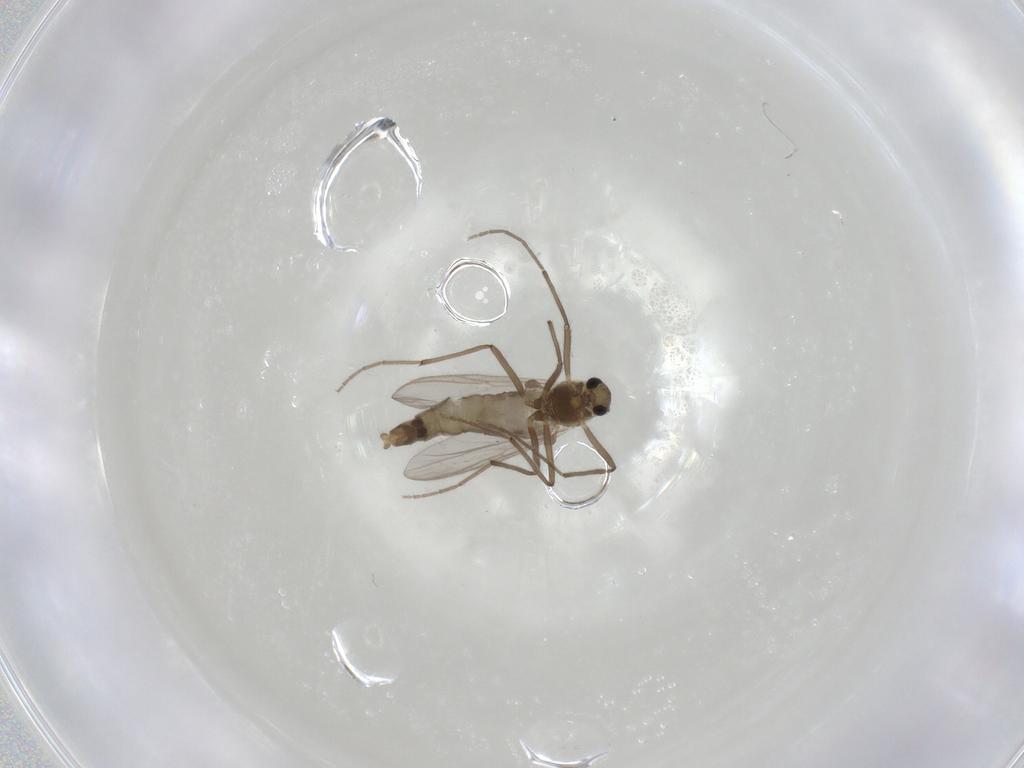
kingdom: Animalia
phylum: Arthropoda
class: Insecta
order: Diptera
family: Chironomidae
